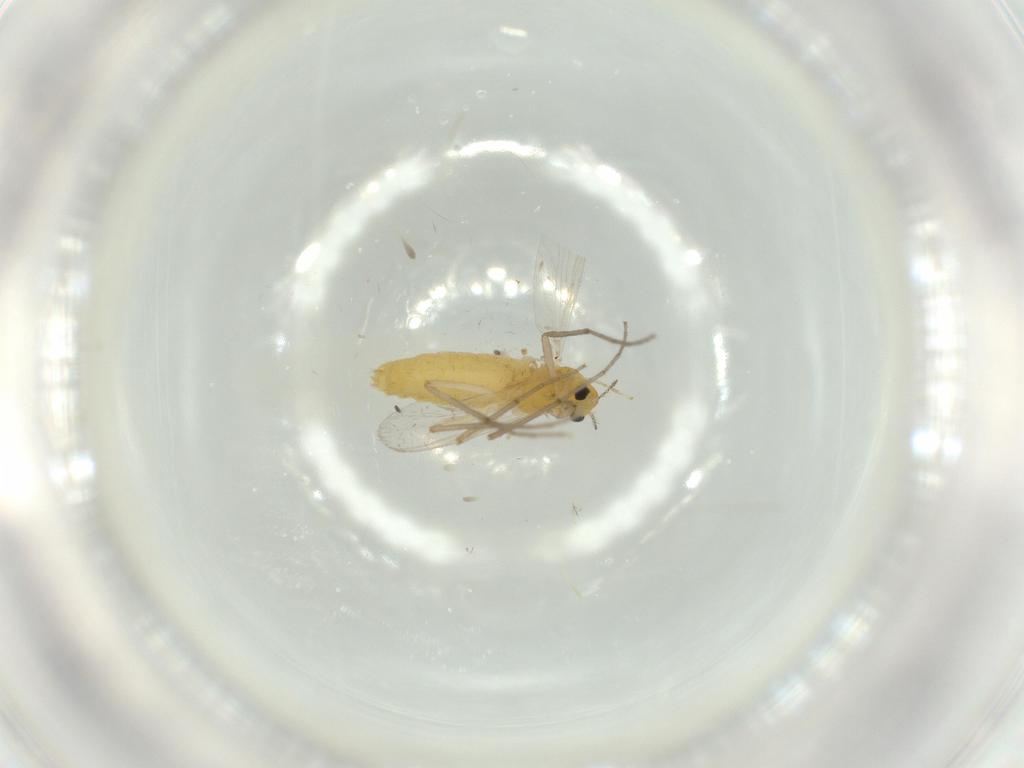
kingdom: Animalia
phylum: Arthropoda
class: Insecta
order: Diptera
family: Chironomidae
